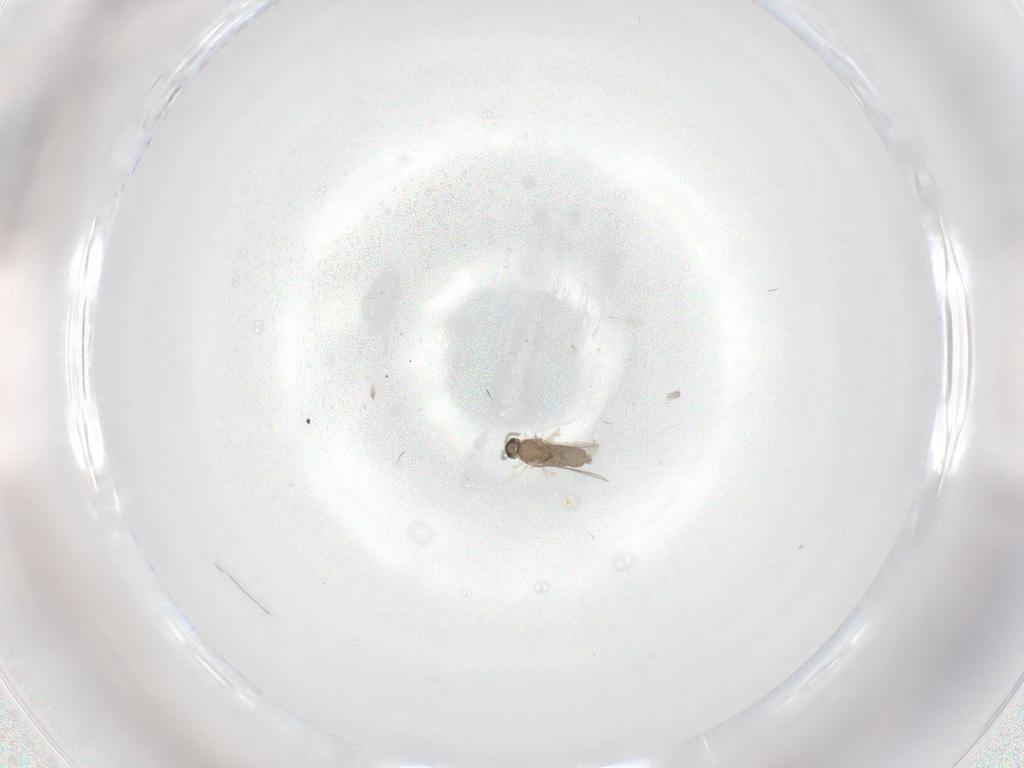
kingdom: Animalia
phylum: Arthropoda
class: Insecta
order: Diptera
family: Cecidomyiidae
